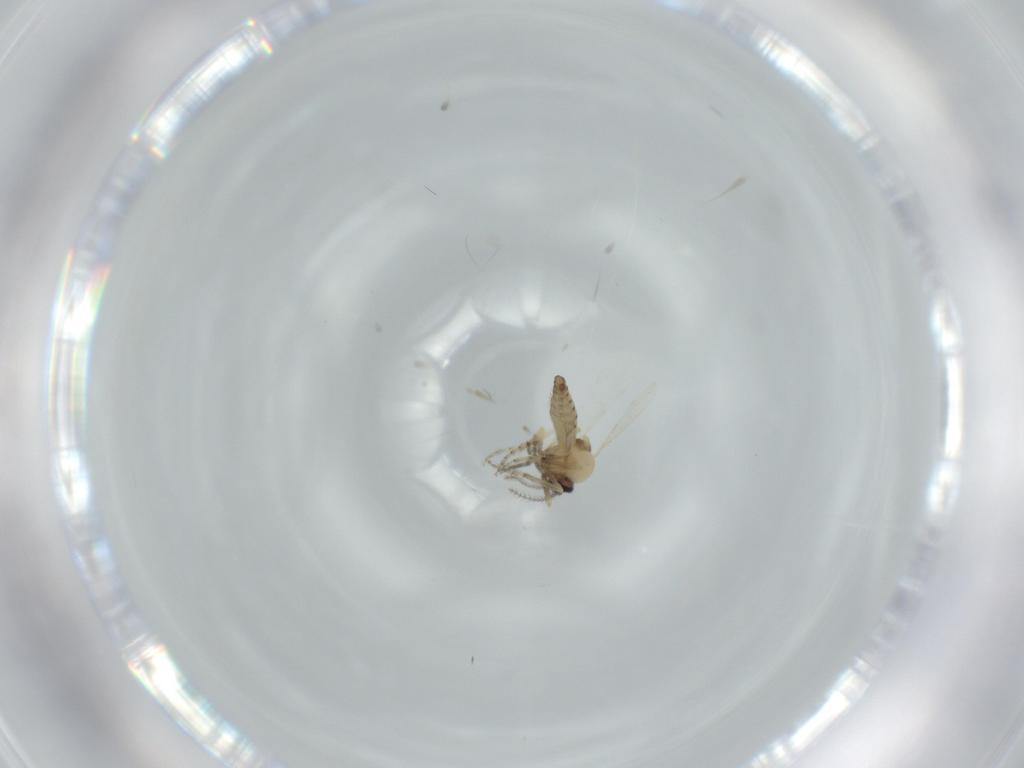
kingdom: Animalia
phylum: Arthropoda
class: Insecta
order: Diptera
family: Ceratopogonidae
